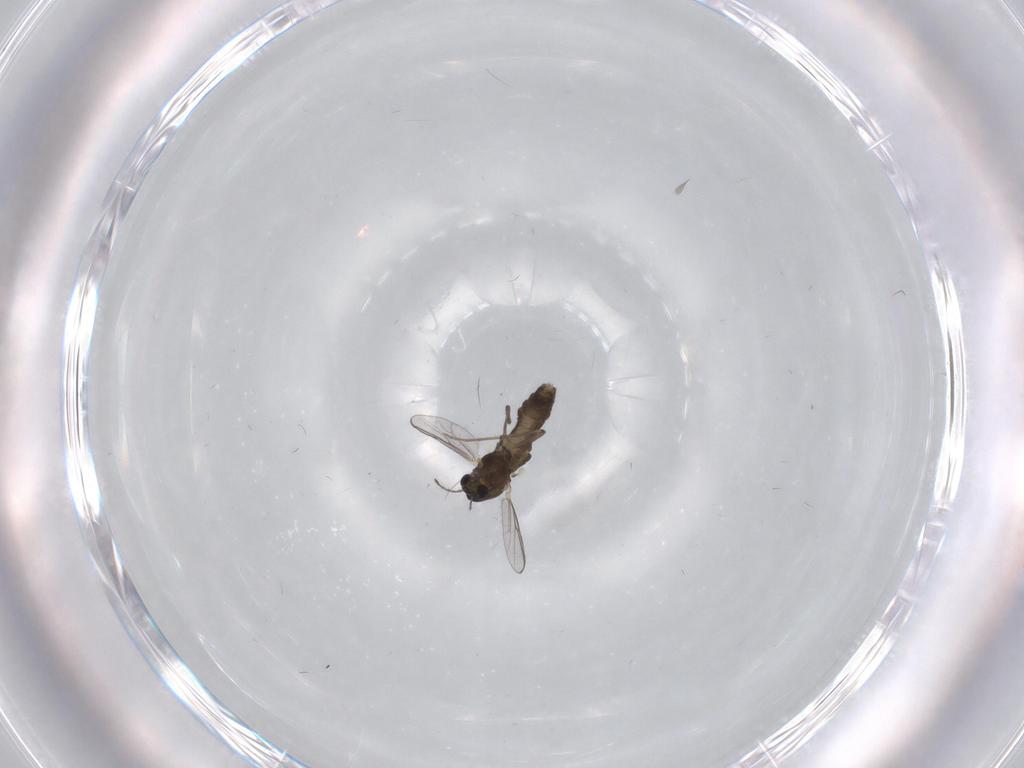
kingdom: Animalia
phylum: Arthropoda
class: Insecta
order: Diptera
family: Chironomidae
